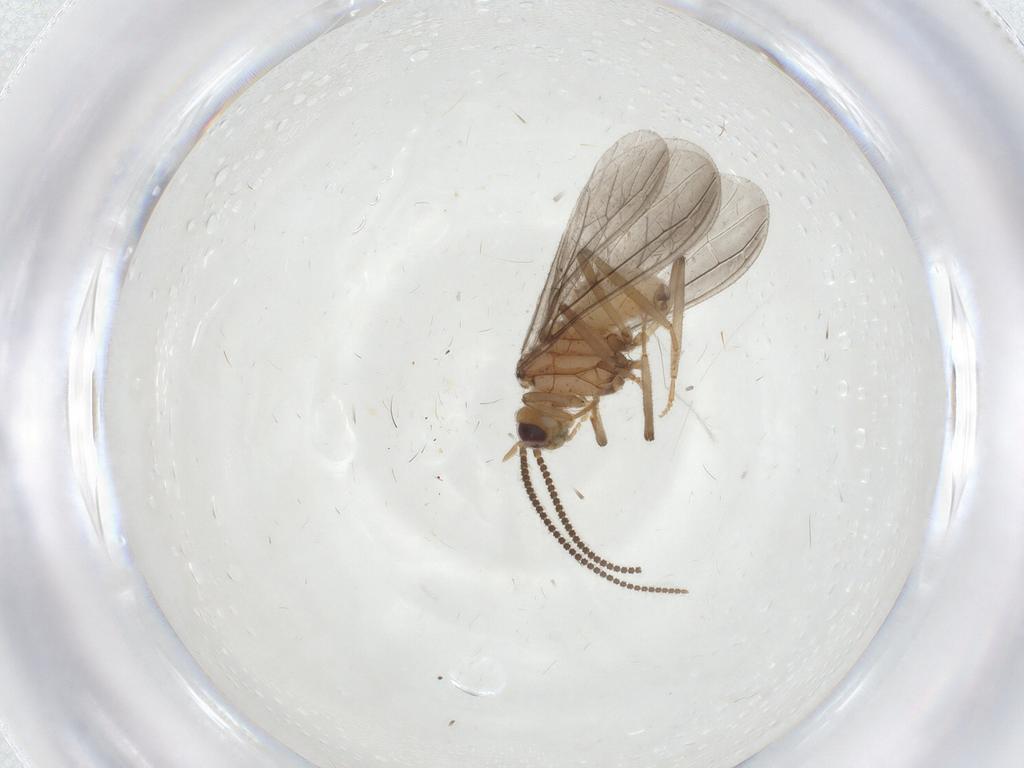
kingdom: Animalia
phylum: Arthropoda
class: Insecta
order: Neuroptera
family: Coniopterygidae
